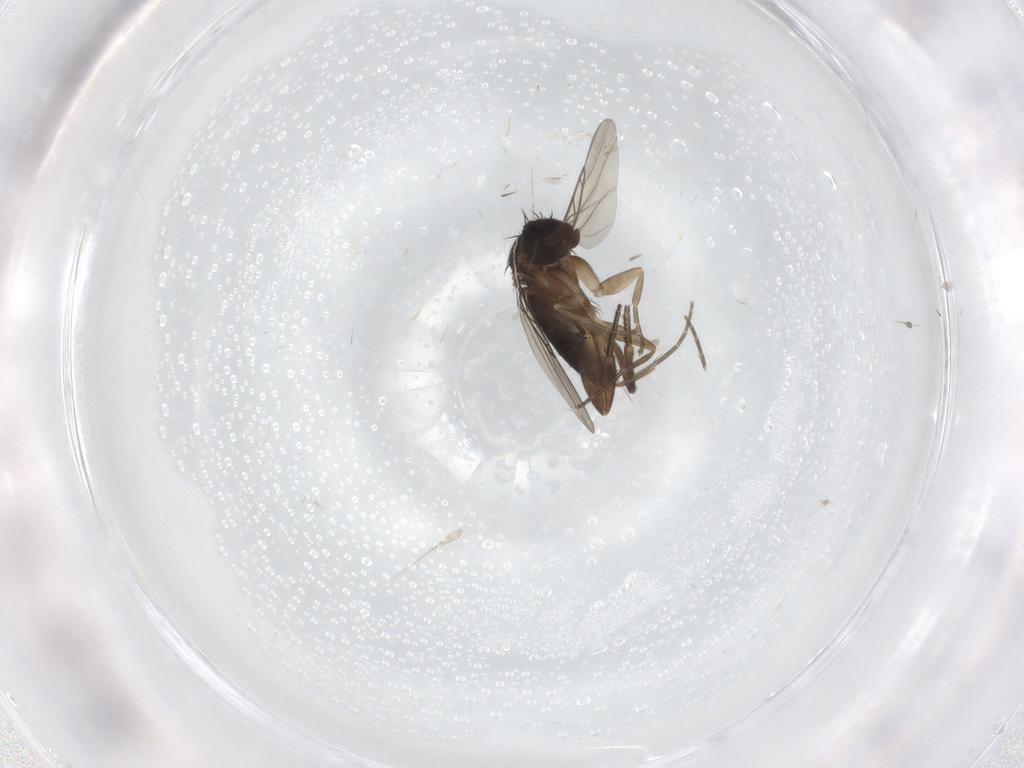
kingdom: Animalia
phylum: Arthropoda
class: Insecta
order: Diptera
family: Phoridae
